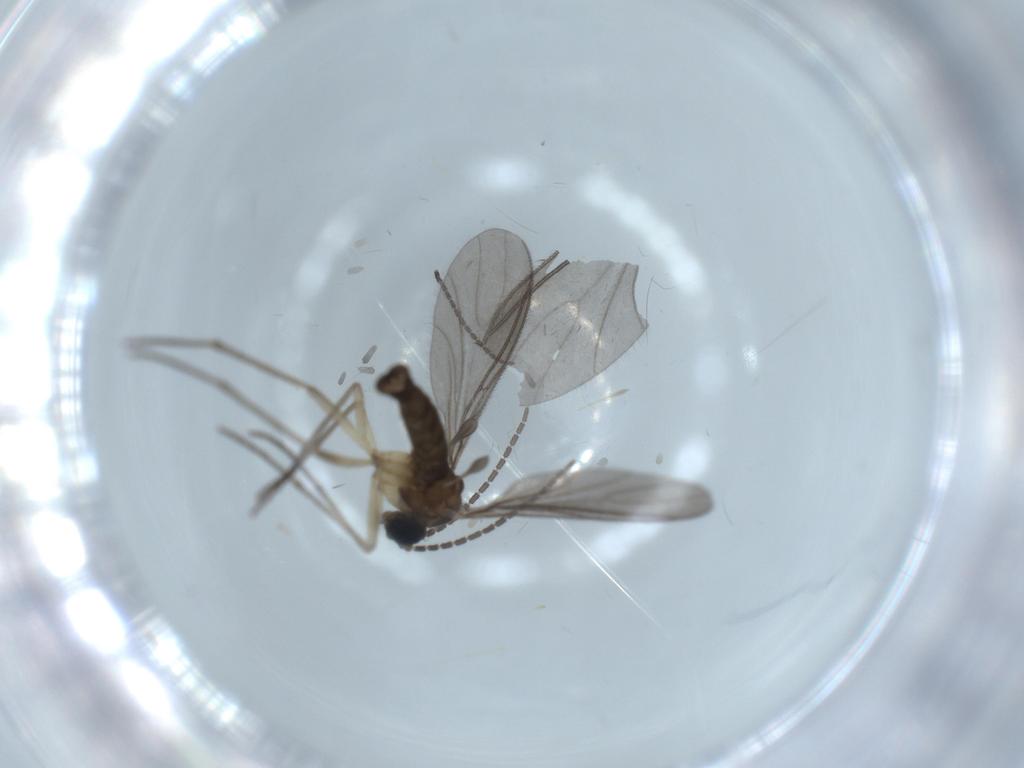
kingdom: Animalia
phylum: Arthropoda
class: Insecta
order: Diptera
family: Sciaridae
